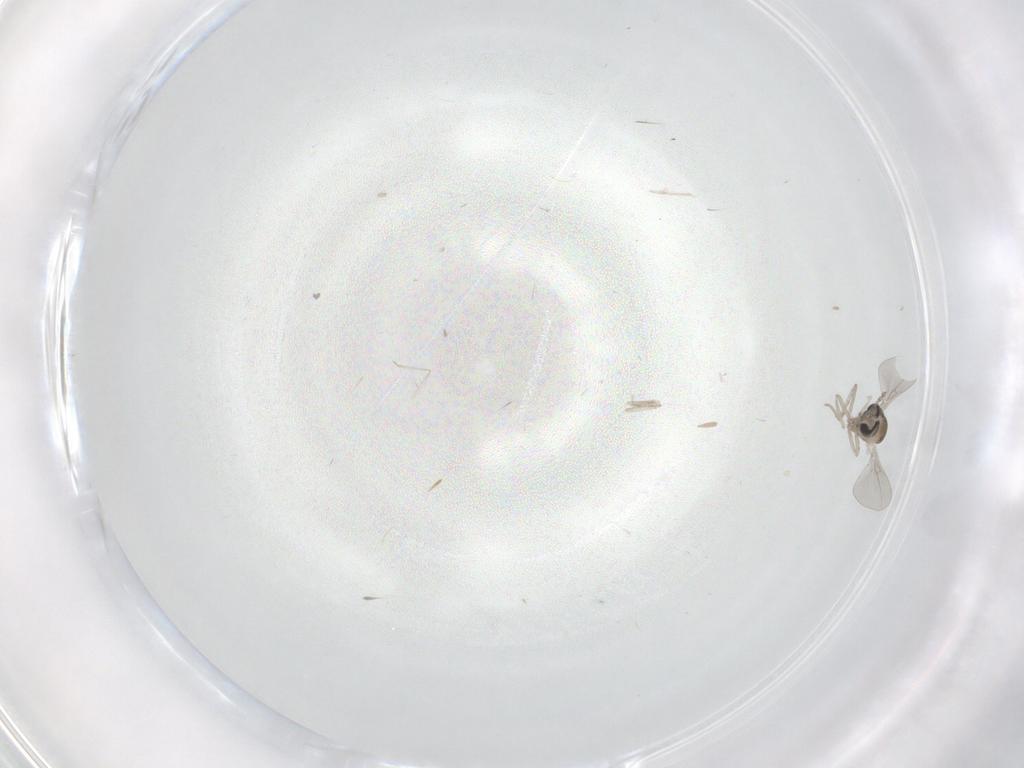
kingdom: Animalia
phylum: Arthropoda
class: Insecta
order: Diptera
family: Cecidomyiidae
